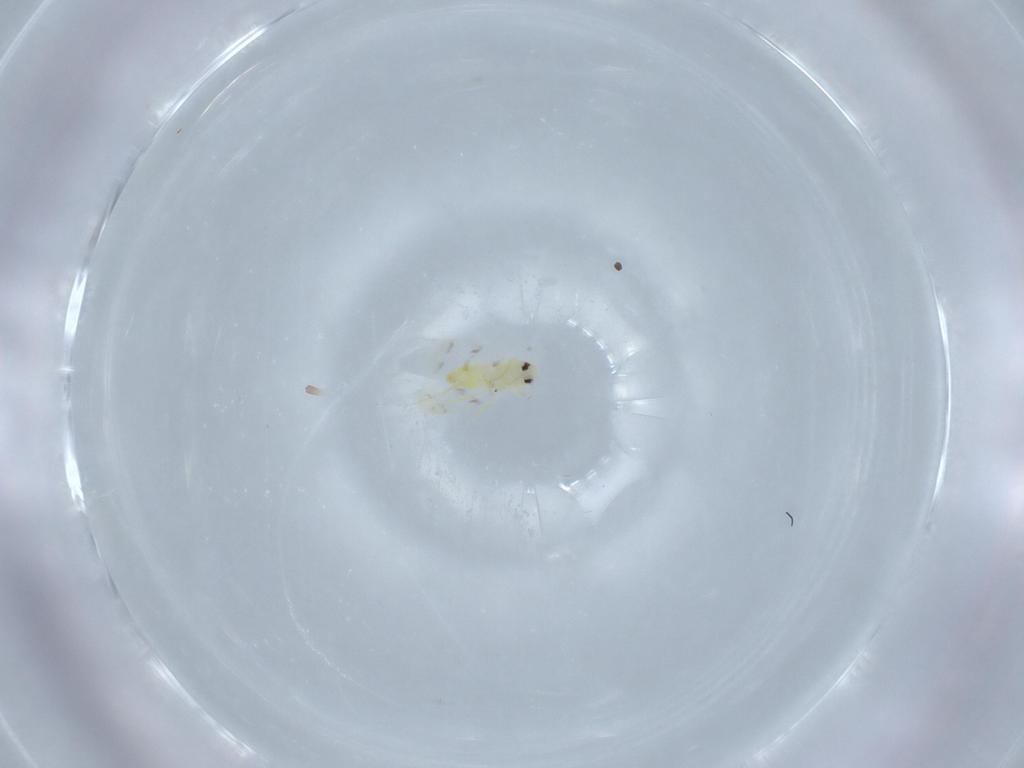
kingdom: Animalia
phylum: Arthropoda
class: Insecta
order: Hemiptera
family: Aleyrodidae
